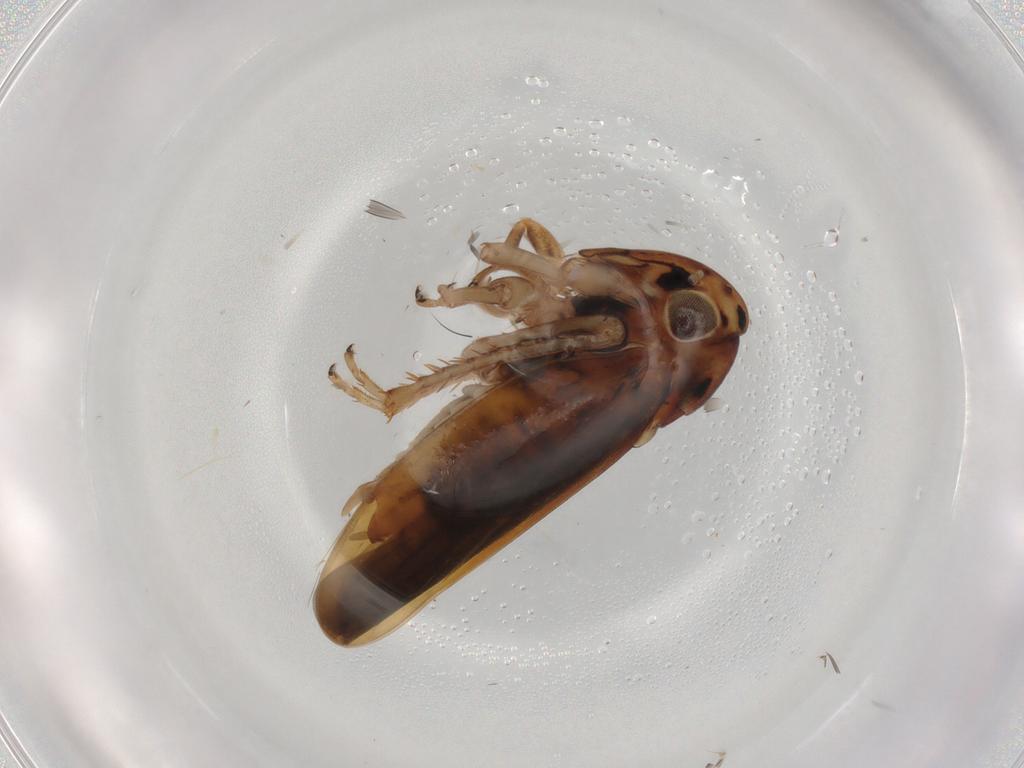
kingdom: Animalia
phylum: Arthropoda
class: Insecta
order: Hemiptera
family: Cicadellidae
